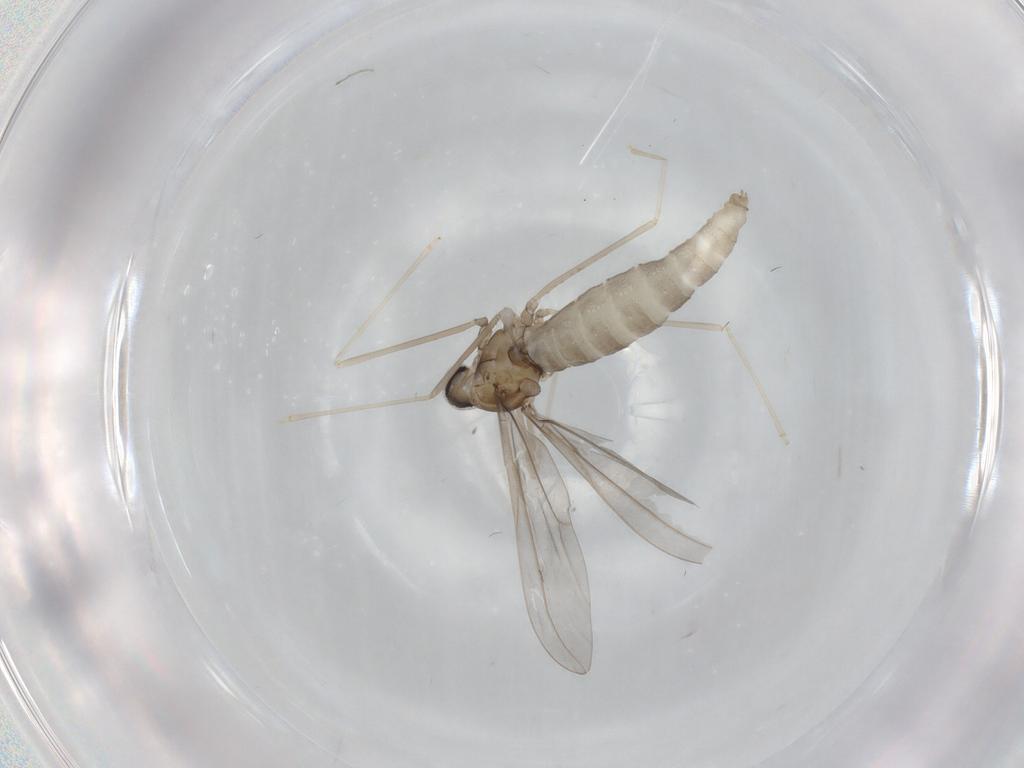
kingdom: Animalia
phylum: Arthropoda
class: Insecta
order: Diptera
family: Cecidomyiidae
